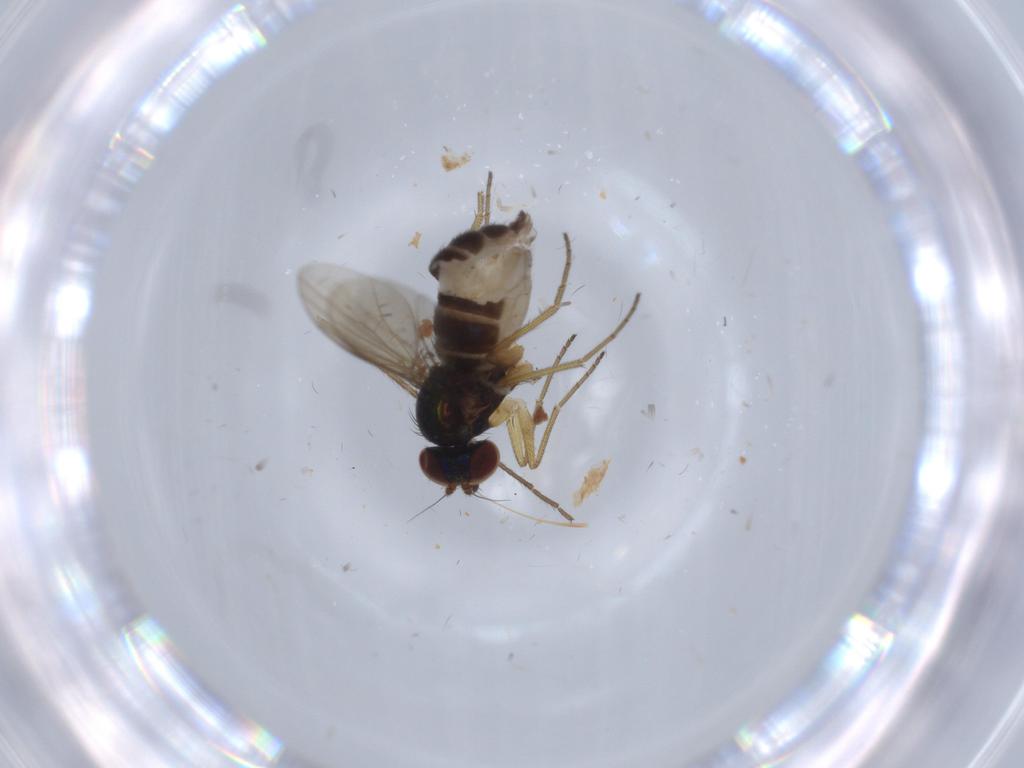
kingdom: Animalia
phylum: Arthropoda
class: Insecta
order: Diptera
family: Dolichopodidae
